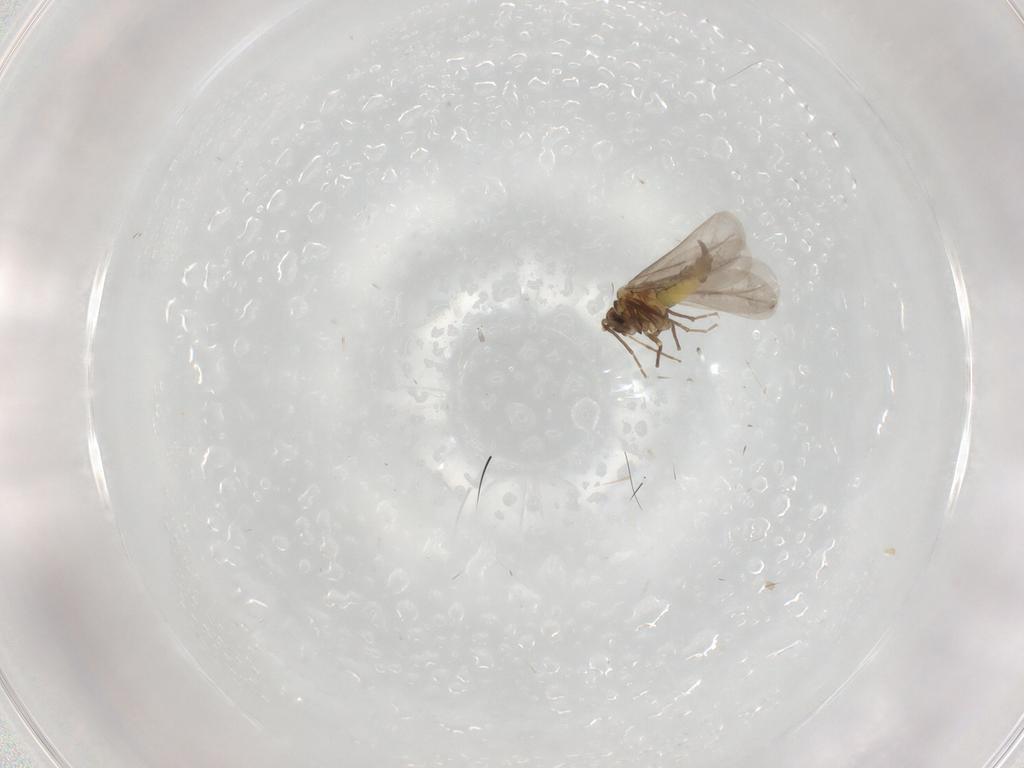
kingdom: Animalia
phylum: Arthropoda
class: Insecta
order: Hemiptera
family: Aleyrodidae
